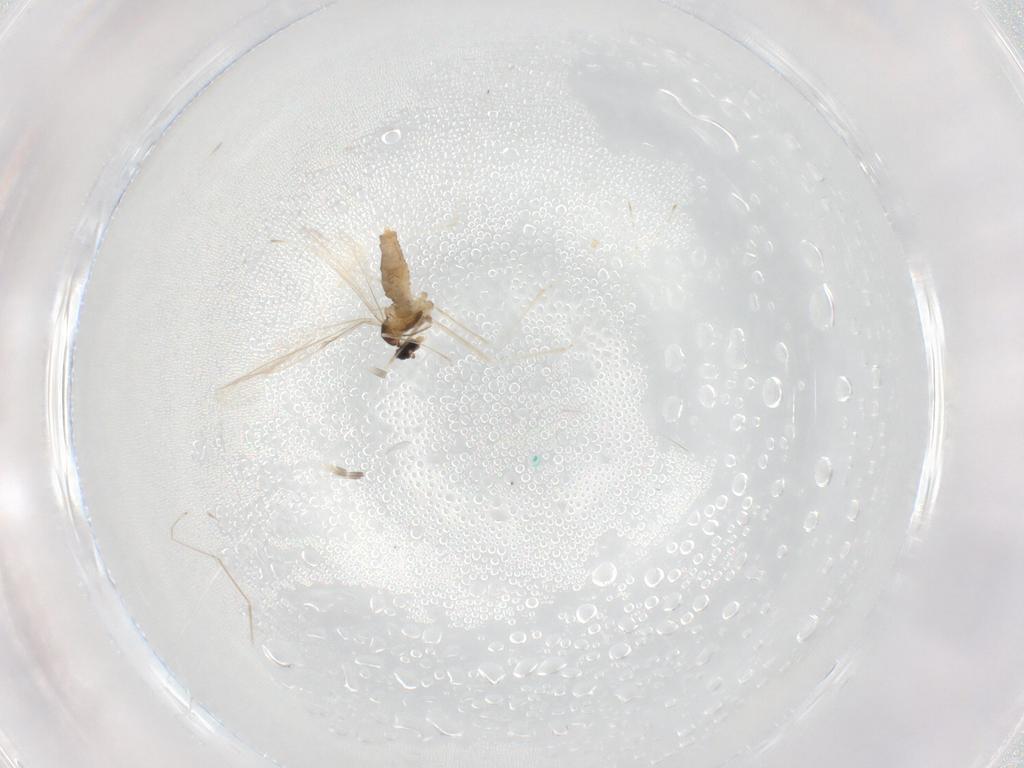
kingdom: Animalia
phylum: Arthropoda
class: Insecta
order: Diptera
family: Cecidomyiidae
